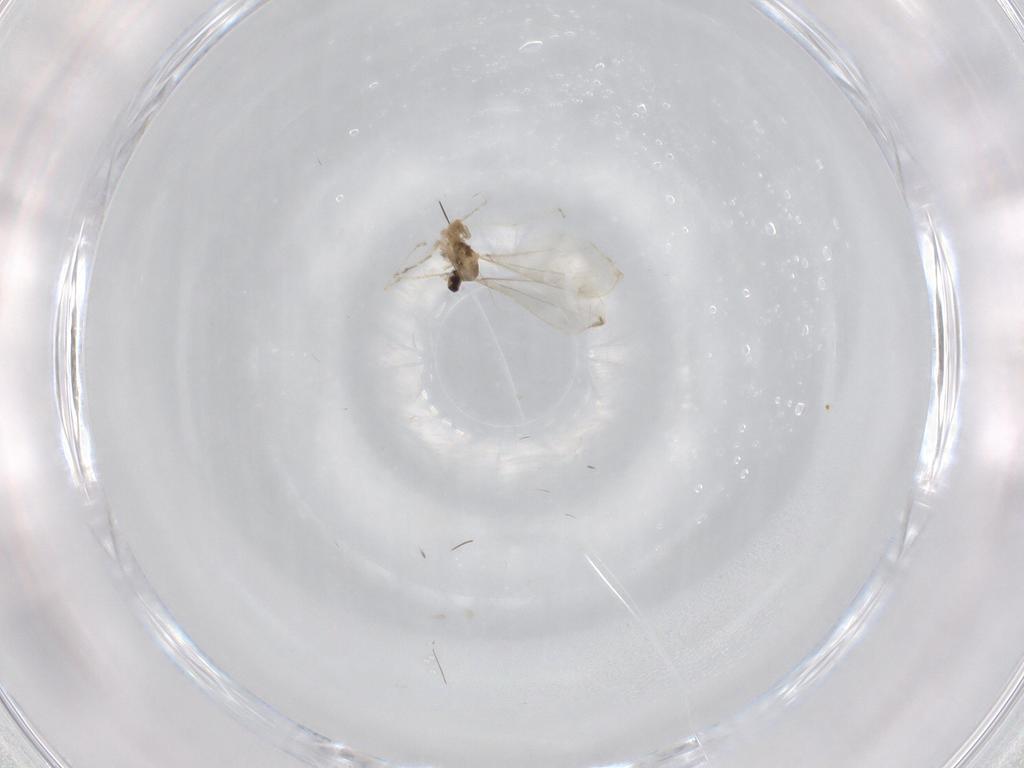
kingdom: Animalia
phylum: Arthropoda
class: Insecta
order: Diptera
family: Cecidomyiidae
